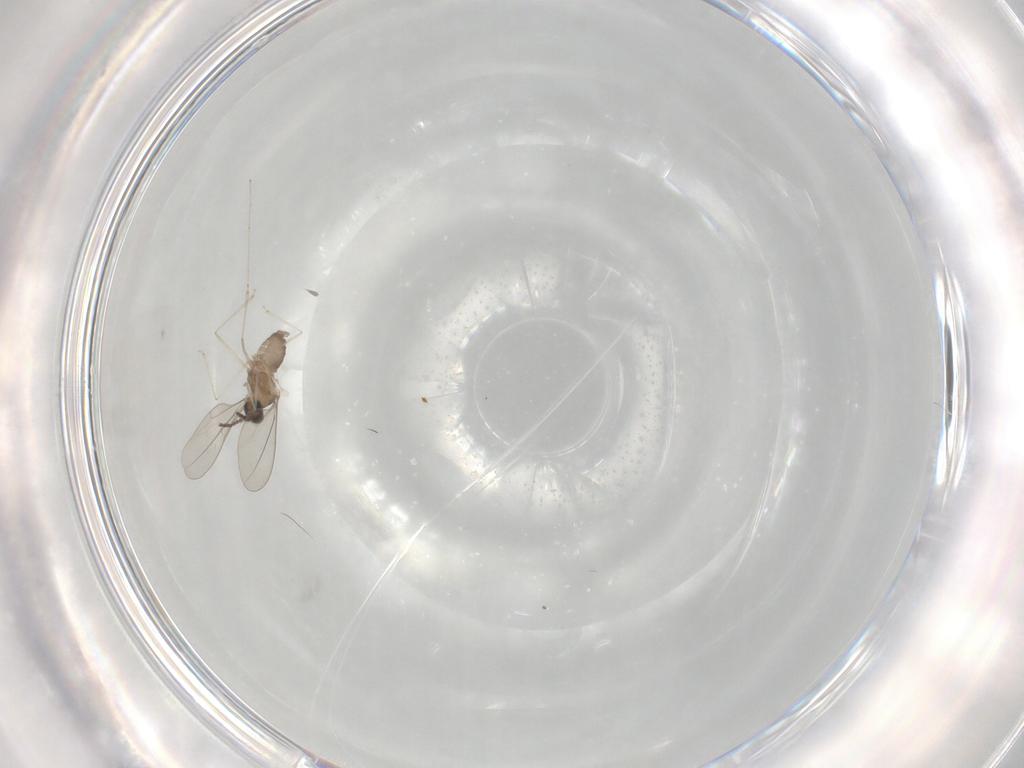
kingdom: Animalia
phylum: Arthropoda
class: Insecta
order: Diptera
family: Cecidomyiidae
